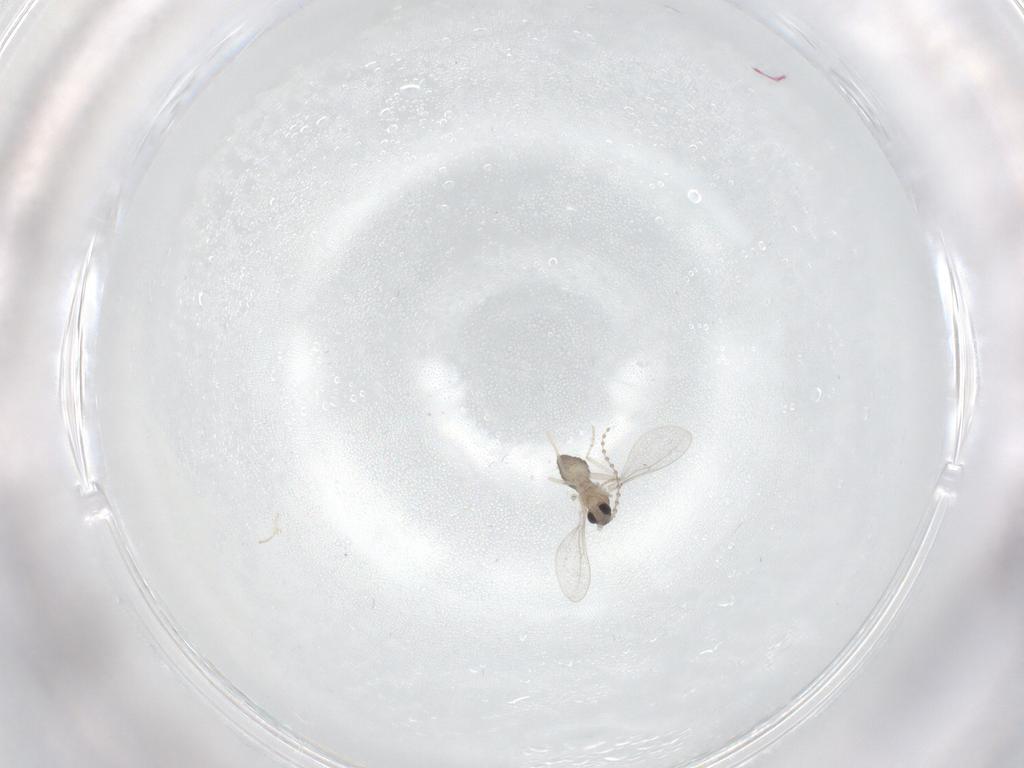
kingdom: Animalia
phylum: Arthropoda
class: Insecta
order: Diptera
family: Cecidomyiidae
